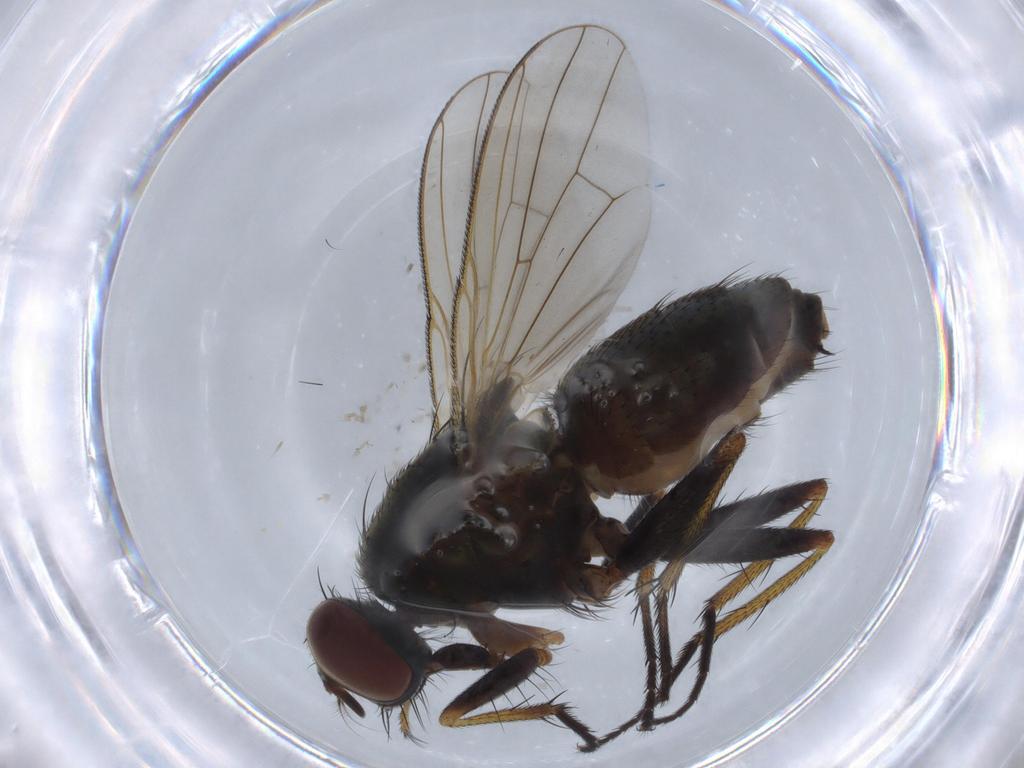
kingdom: Animalia
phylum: Arthropoda
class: Insecta
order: Diptera
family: Muscidae
